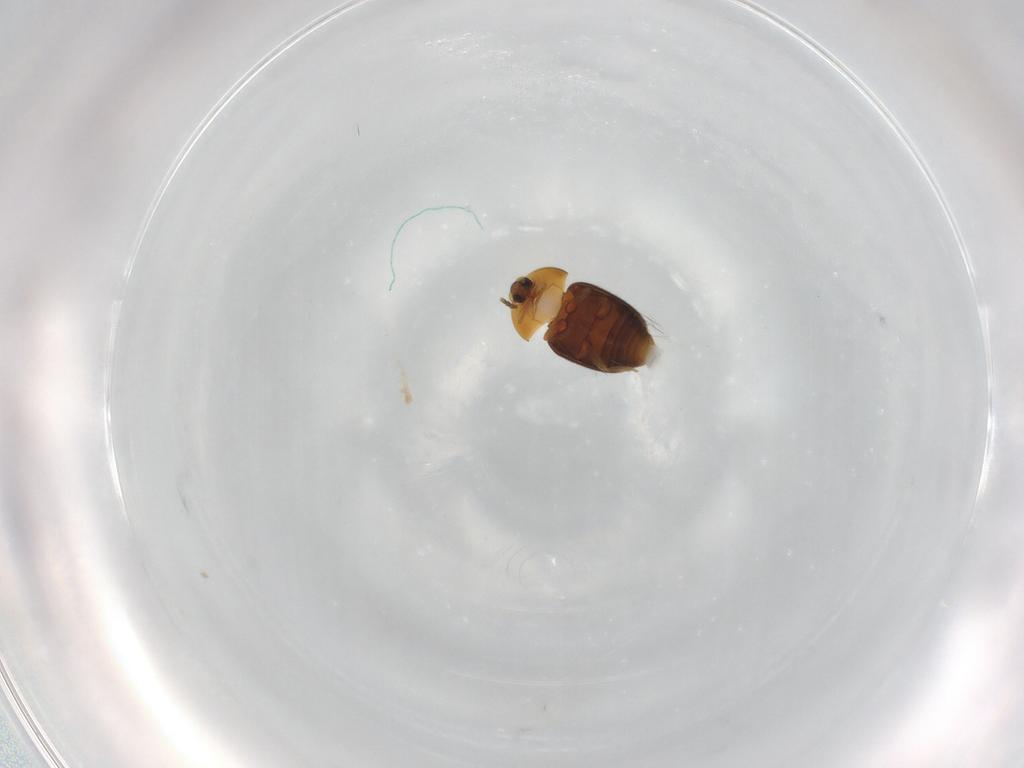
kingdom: Animalia
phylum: Arthropoda
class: Insecta
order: Coleoptera
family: Corylophidae
